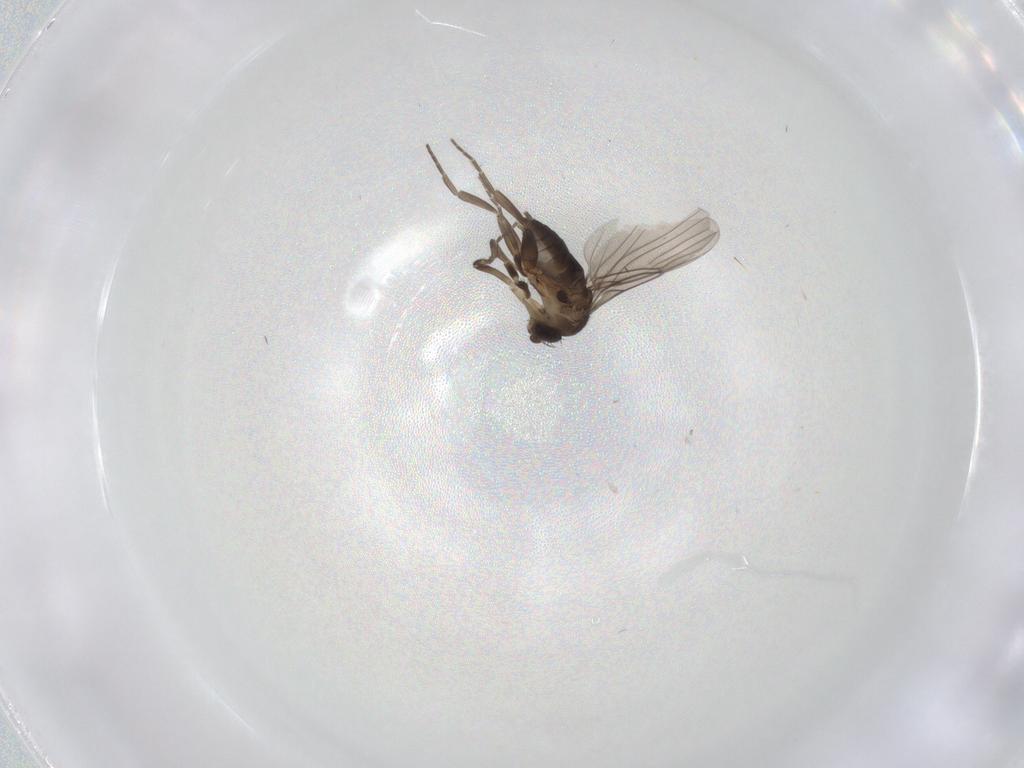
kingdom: Animalia
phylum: Arthropoda
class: Insecta
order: Diptera
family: Phoridae
